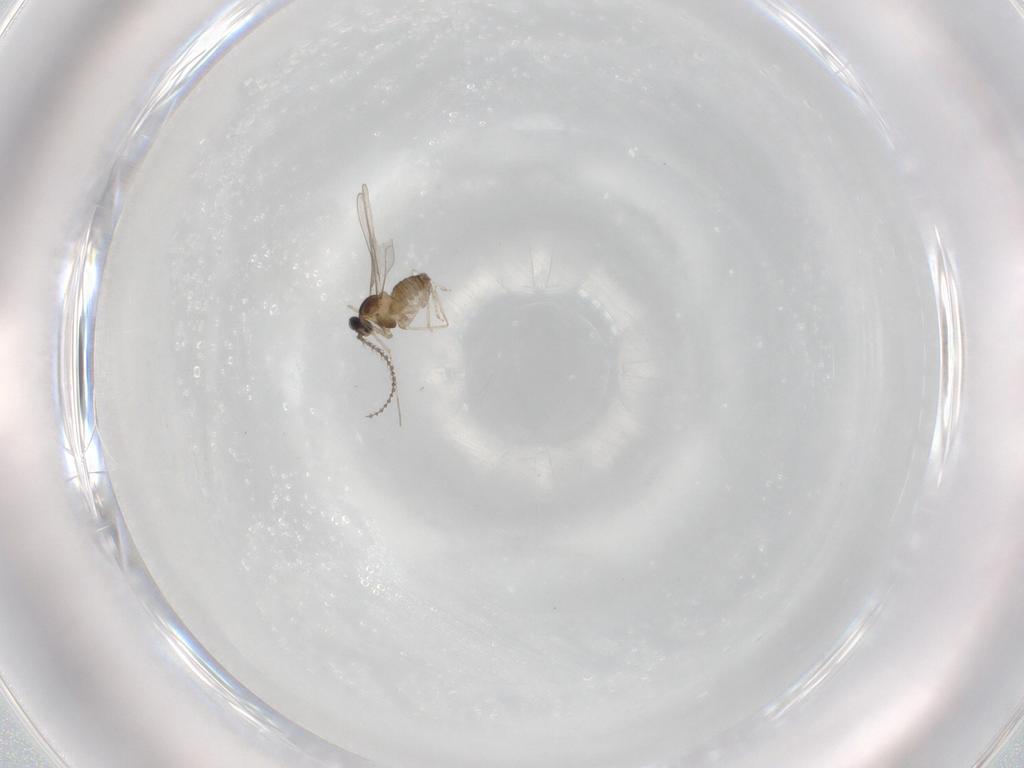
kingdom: Animalia
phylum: Arthropoda
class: Insecta
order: Diptera
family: Cecidomyiidae
